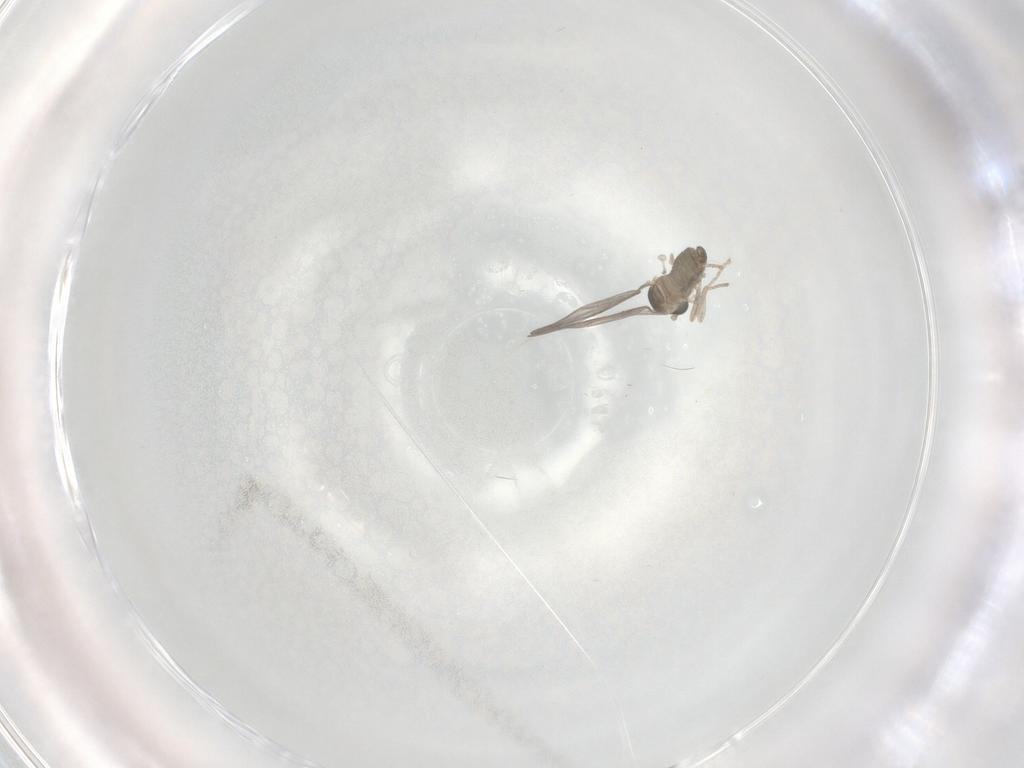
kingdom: Animalia
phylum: Arthropoda
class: Insecta
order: Diptera
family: Cecidomyiidae
